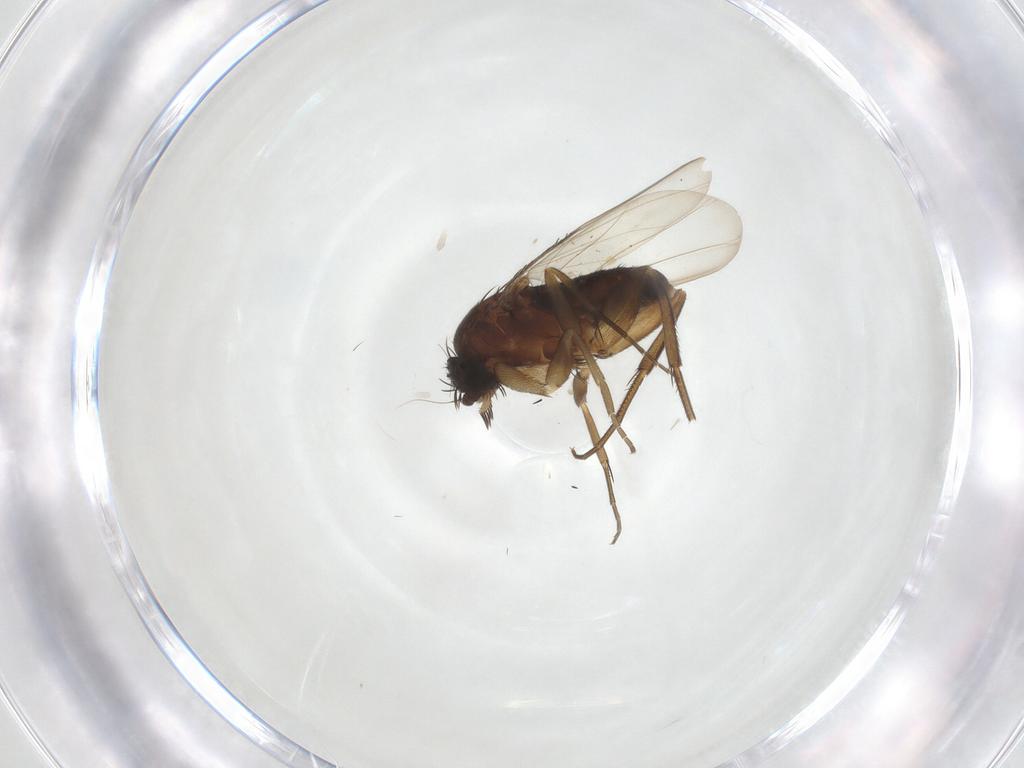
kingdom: Animalia
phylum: Arthropoda
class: Insecta
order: Diptera
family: Phoridae
